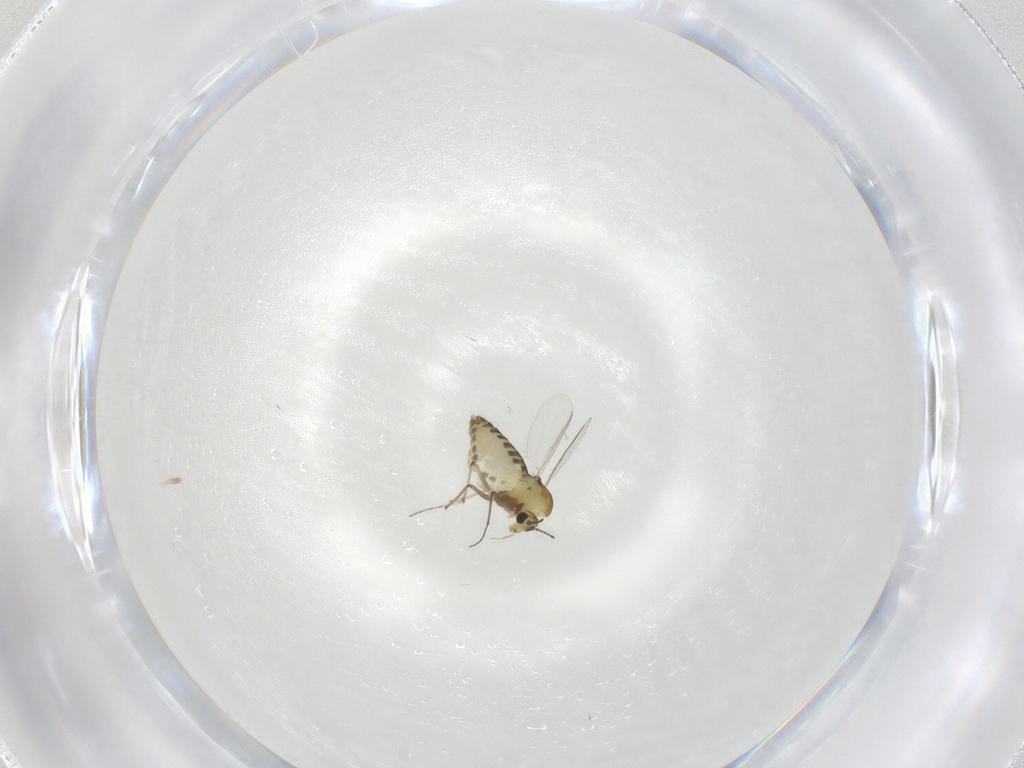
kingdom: Animalia
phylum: Arthropoda
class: Insecta
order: Diptera
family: Chironomidae
